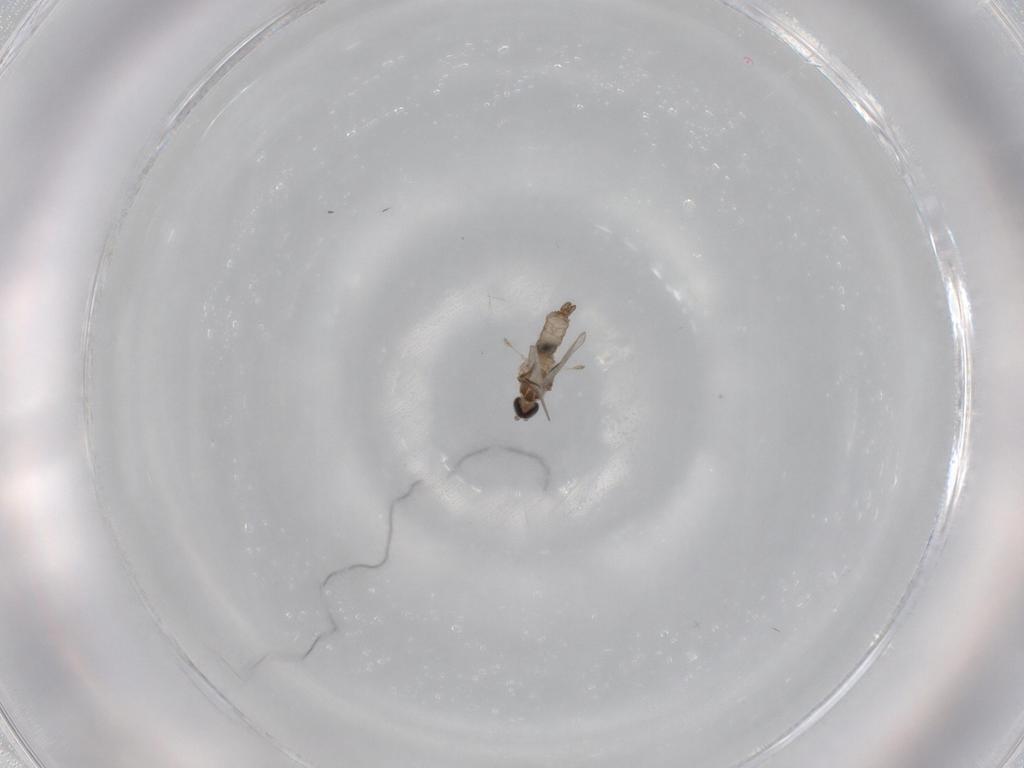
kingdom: Animalia
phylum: Arthropoda
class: Insecta
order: Diptera
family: Cecidomyiidae
